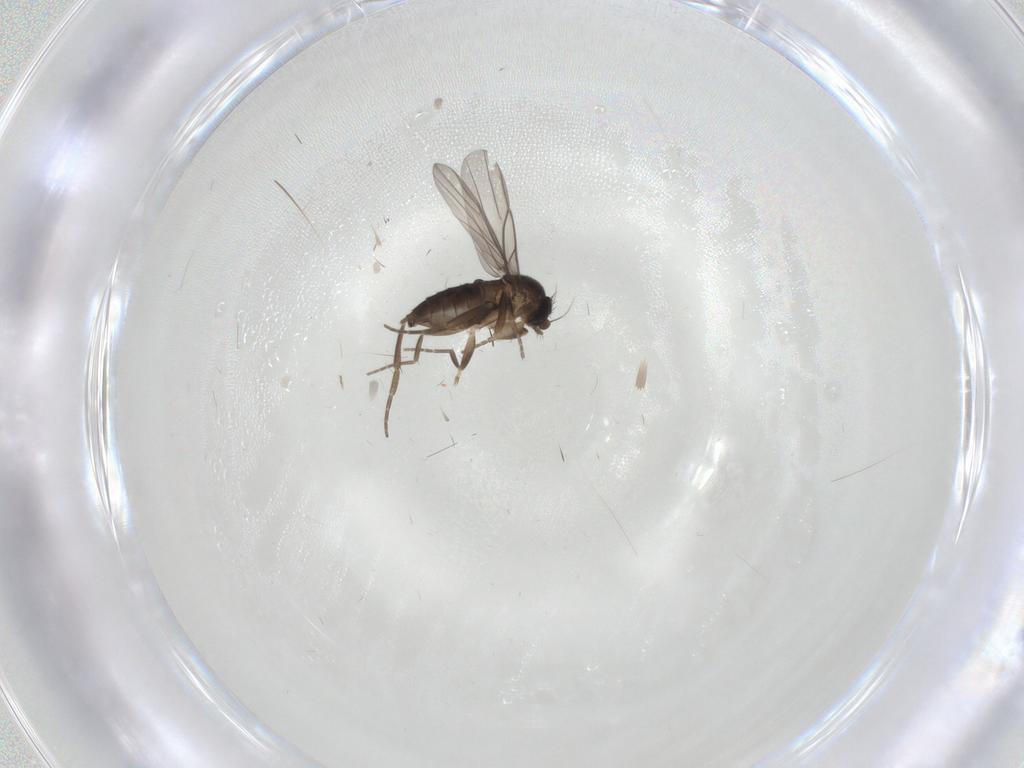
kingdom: Animalia
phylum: Arthropoda
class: Insecta
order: Diptera
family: Phoridae
